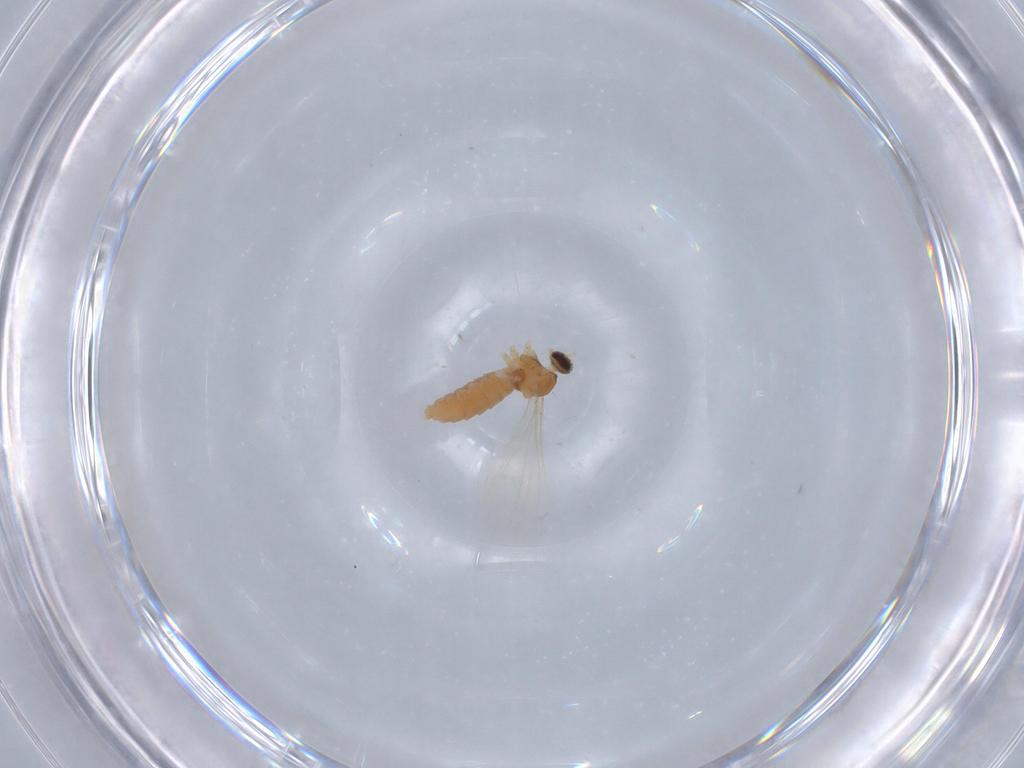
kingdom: Animalia
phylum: Arthropoda
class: Insecta
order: Diptera
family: Cecidomyiidae
